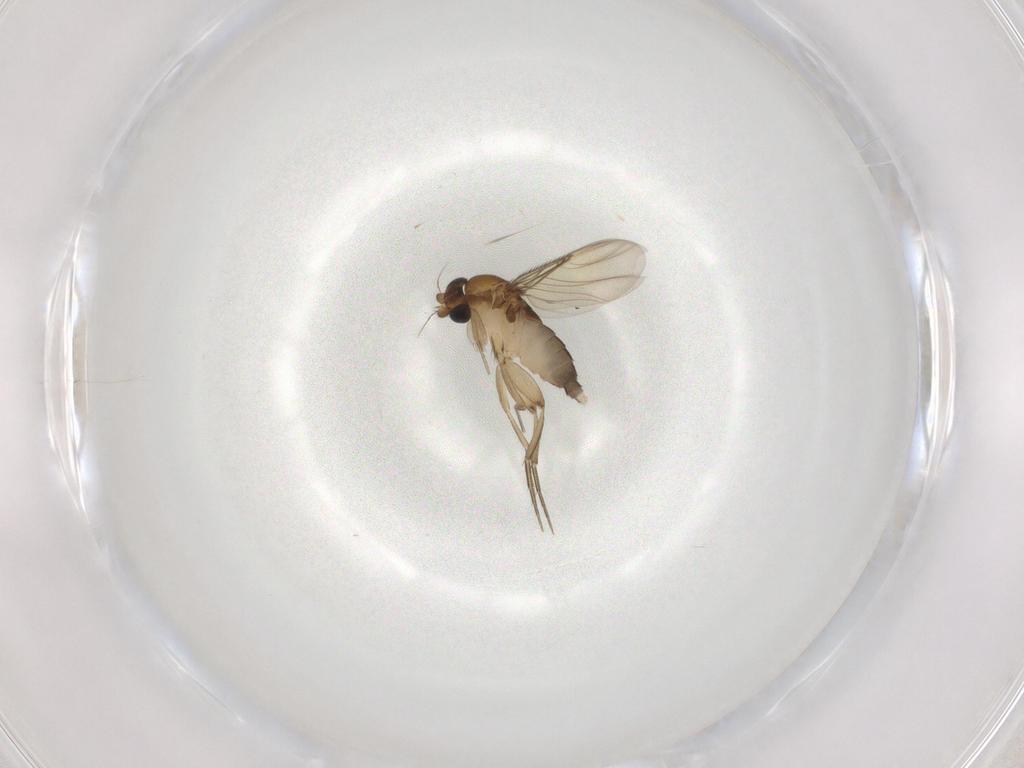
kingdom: Animalia
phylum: Arthropoda
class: Insecta
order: Diptera
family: Phoridae
